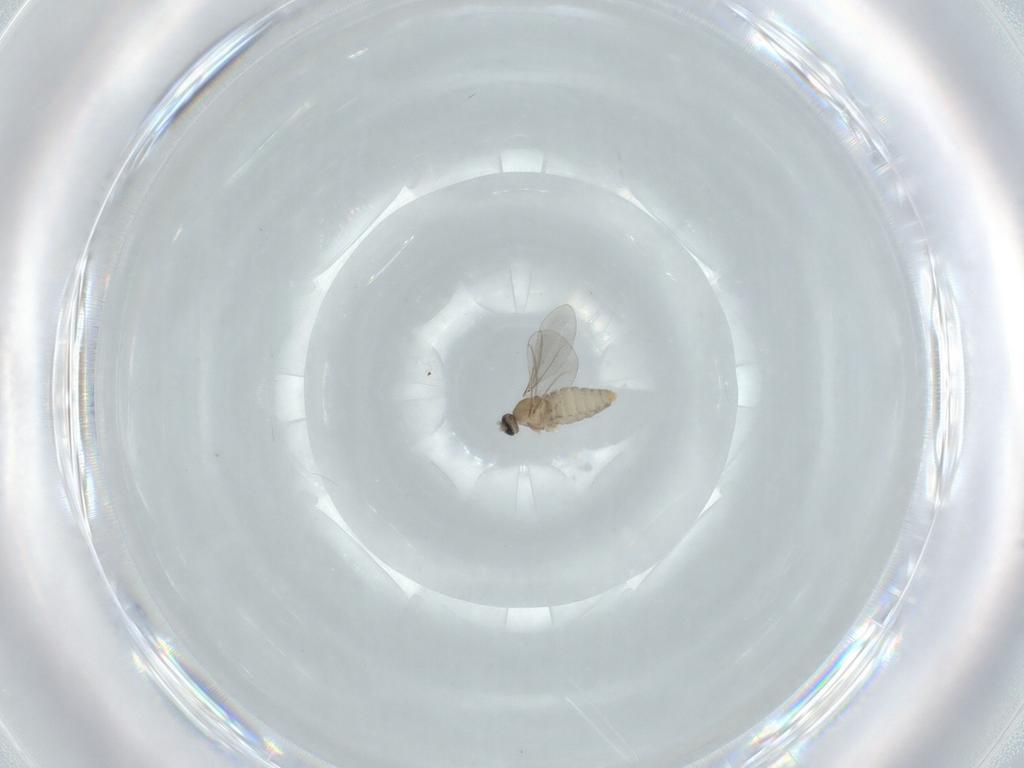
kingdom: Animalia
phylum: Arthropoda
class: Insecta
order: Diptera
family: Cecidomyiidae
